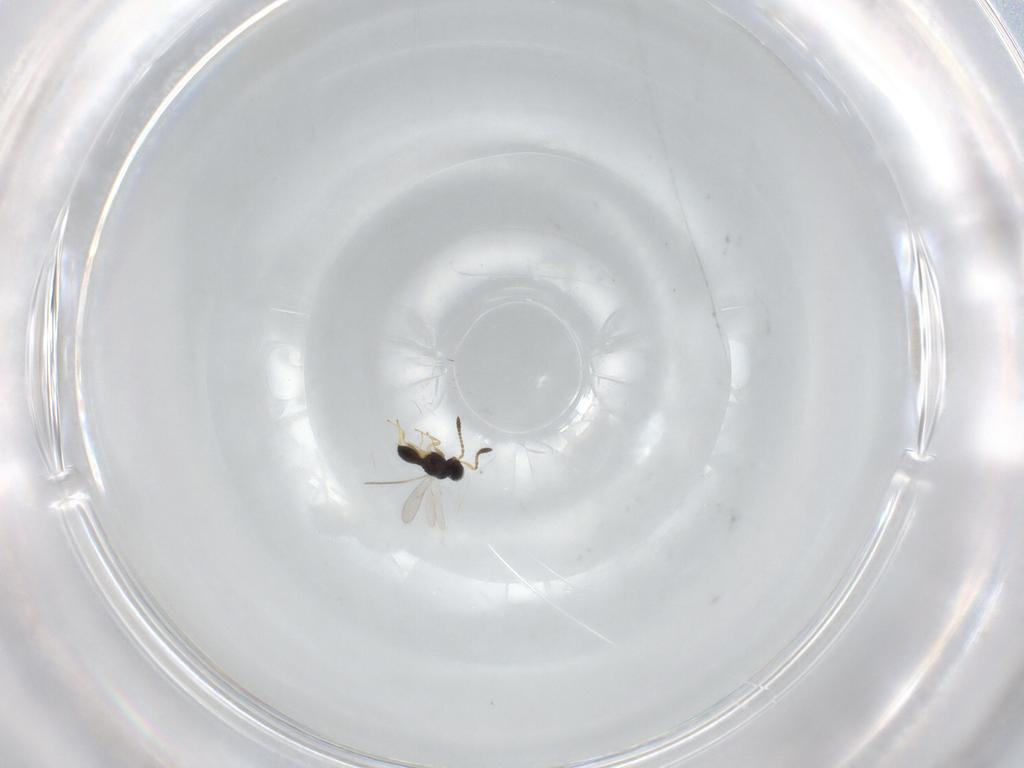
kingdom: Animalia
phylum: Arthropoda
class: Insecta
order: Hymenoptera
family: Scelionidae
